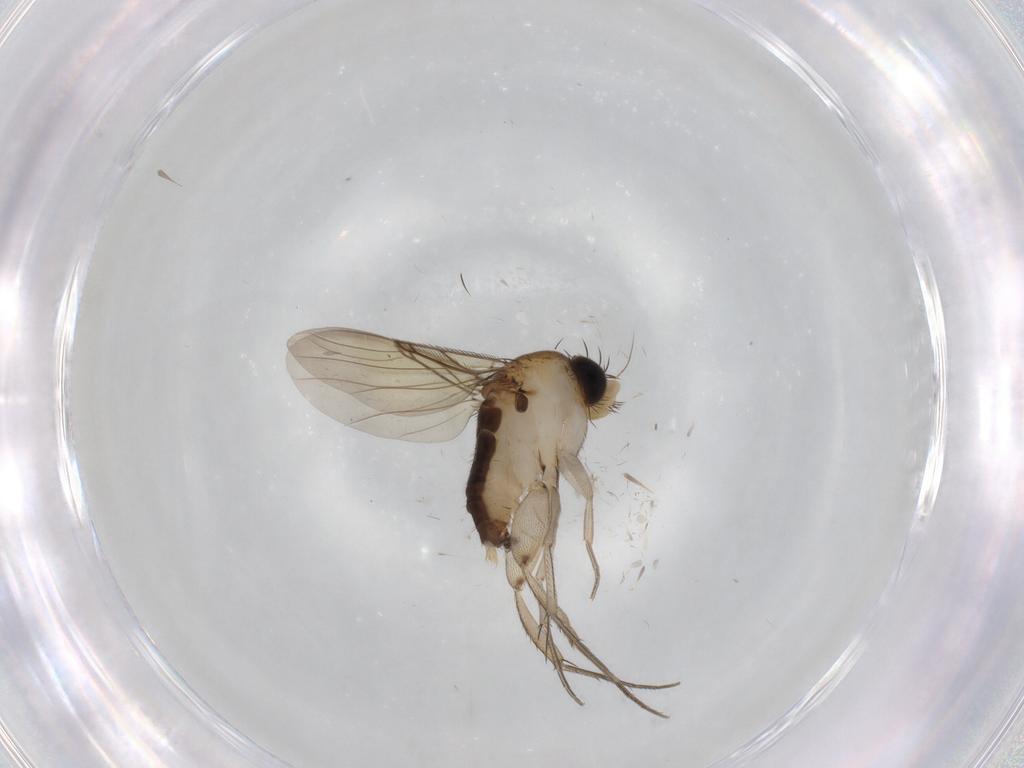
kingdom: Animalia
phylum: Arthropoda
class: Insecta
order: Diptera
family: Phoridae
